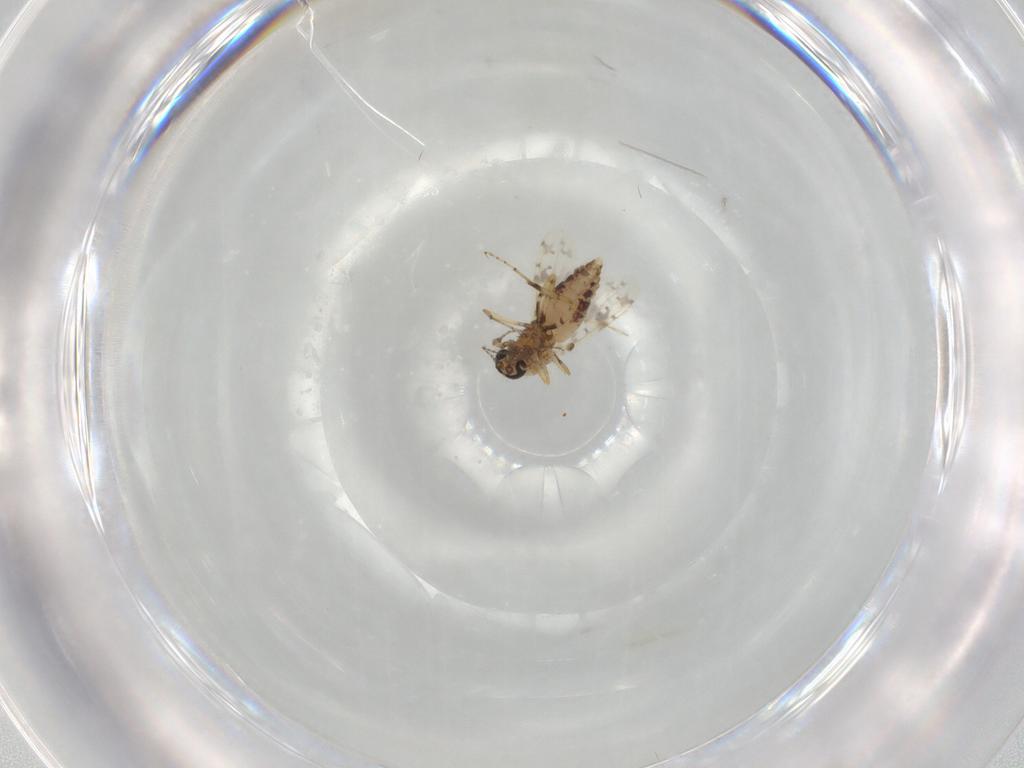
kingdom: Animalia
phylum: Arthropoda
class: Insecta
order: Diptera
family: Ceratopogonidae
